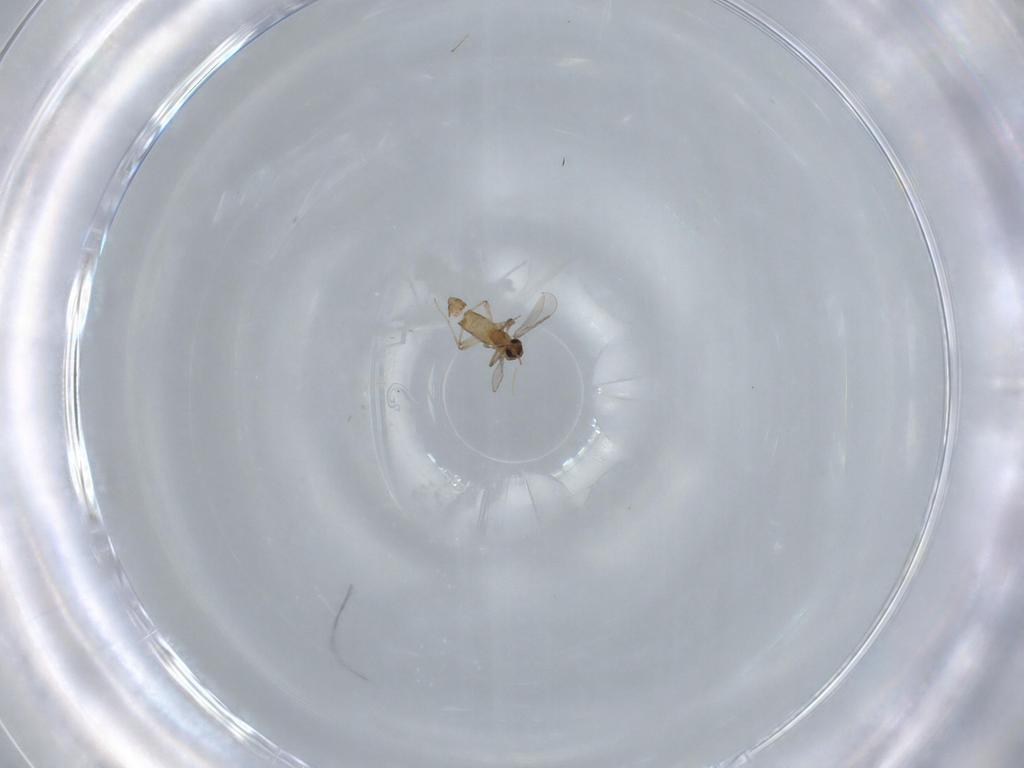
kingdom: Animalia
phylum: Arthropoda
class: Insecta
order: Diptera
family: Chironomidae
